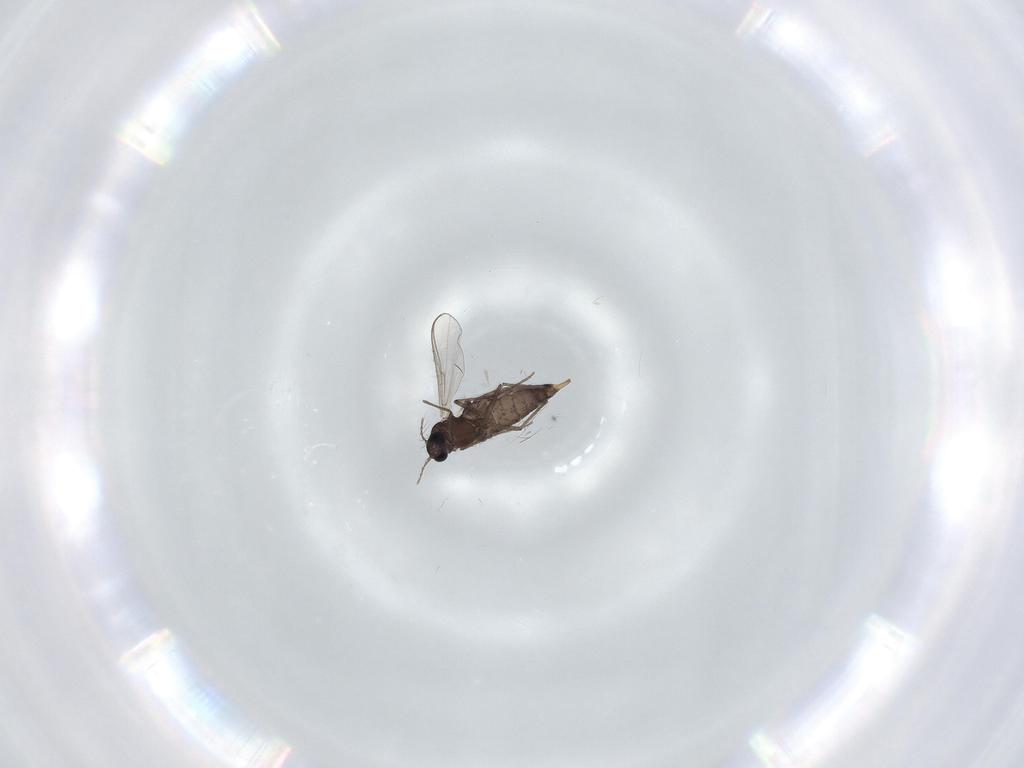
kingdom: Animalia
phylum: Arthropoda
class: Insecta
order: Diptera
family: Chironomidae
